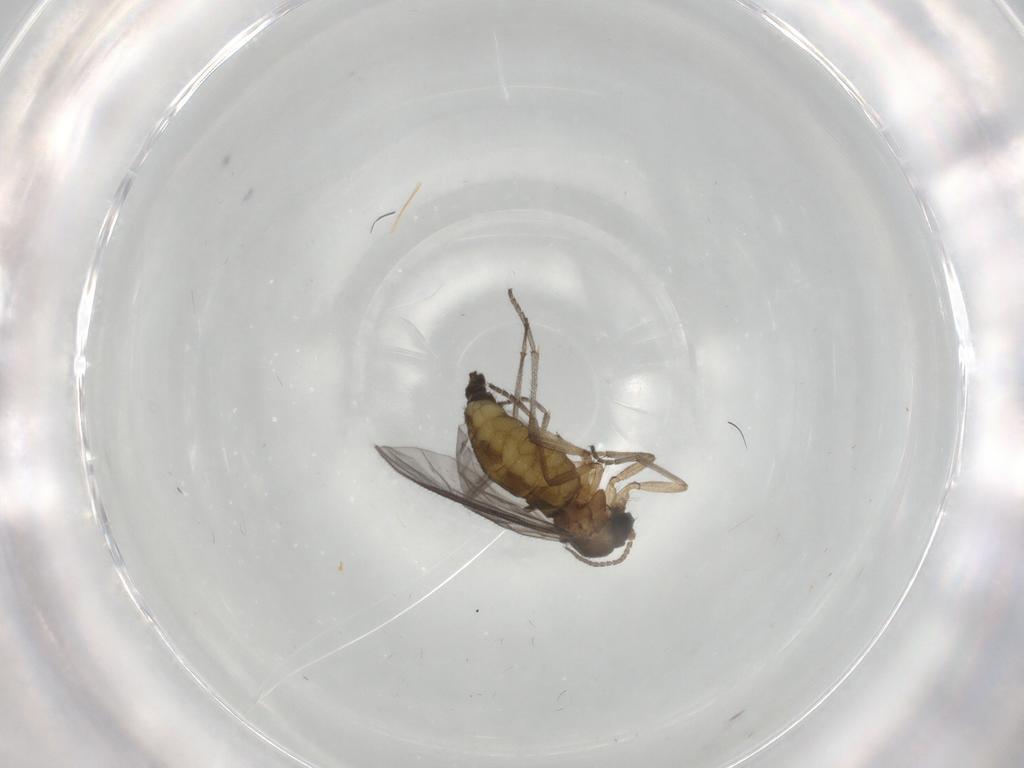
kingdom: Animalia
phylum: Arthropoda
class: Insecta
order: Diptera
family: Sciaridae
